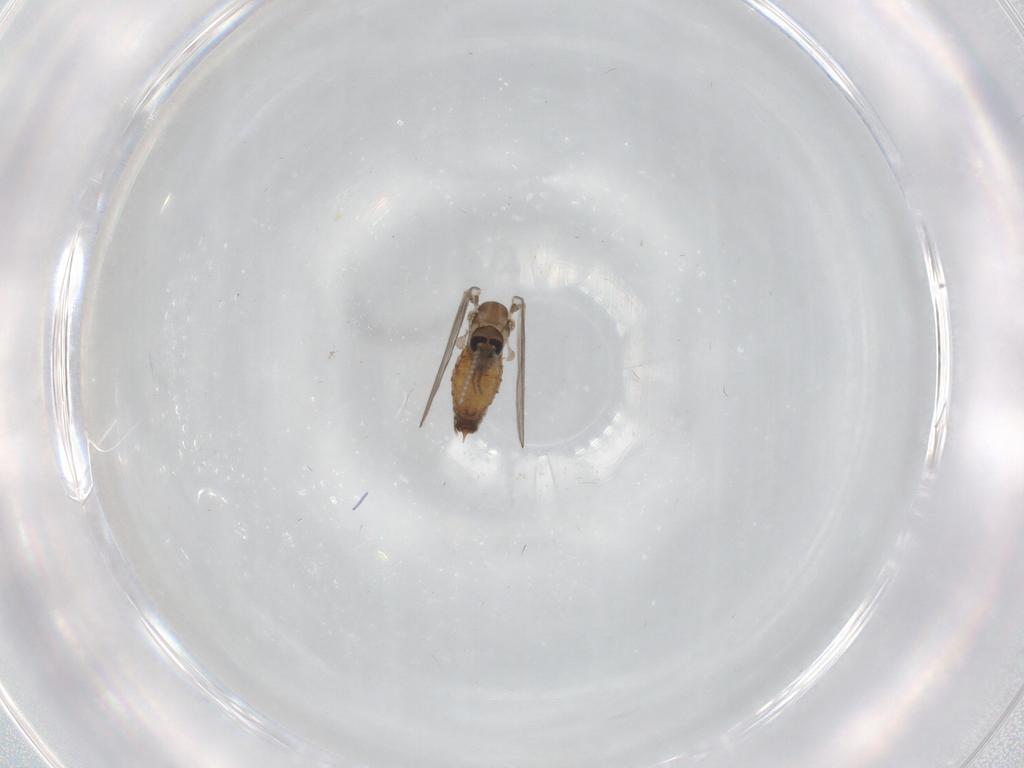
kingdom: Animalia
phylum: Arthropoda
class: Insecta
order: Diptera
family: Psychodidae
